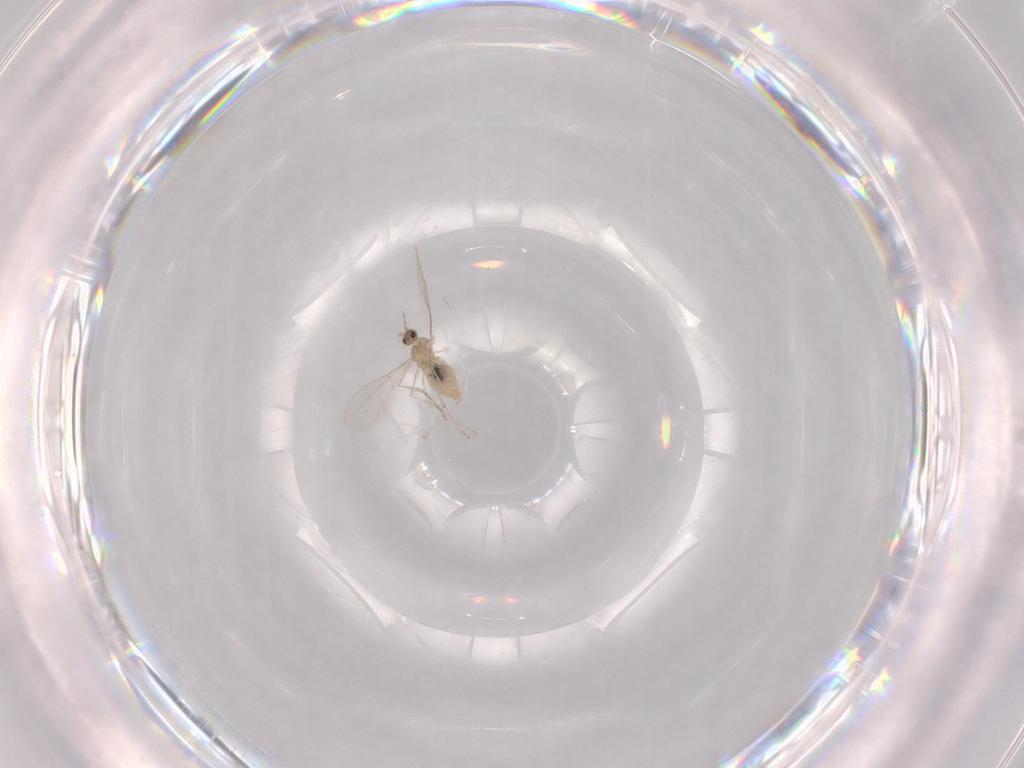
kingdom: Animalia
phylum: Arthropoda
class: Insecta
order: Diptera
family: Cecidomyiidae
